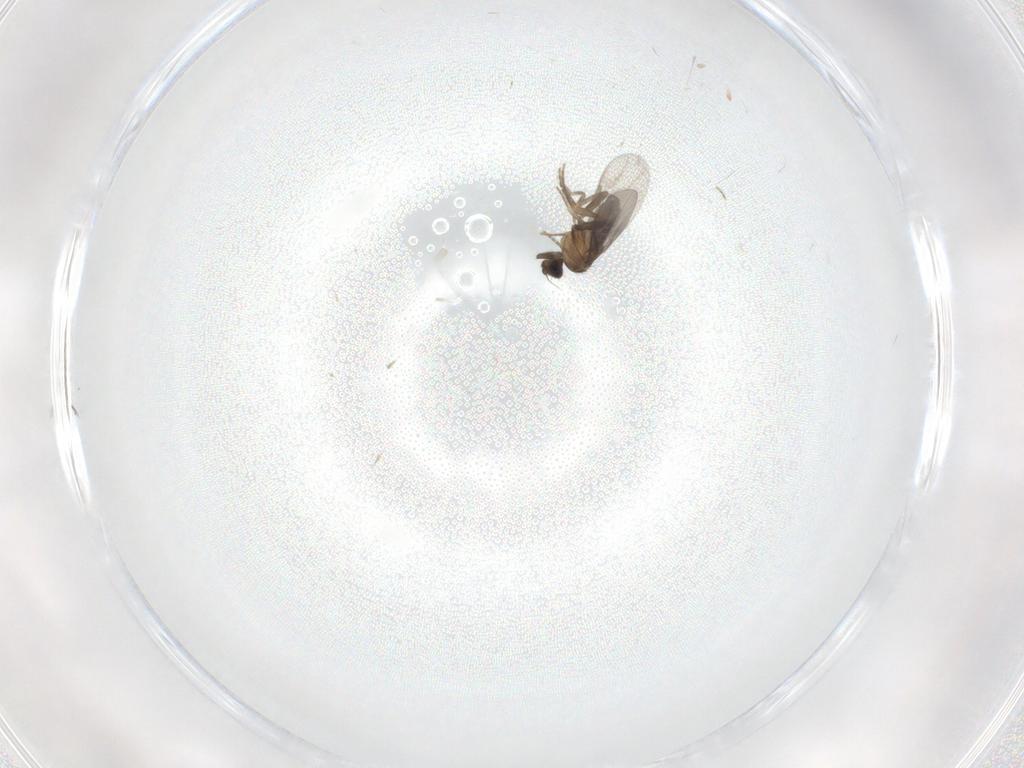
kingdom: Animalia
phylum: Arthropoda
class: Insecta
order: Diptera
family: Limoniidae
